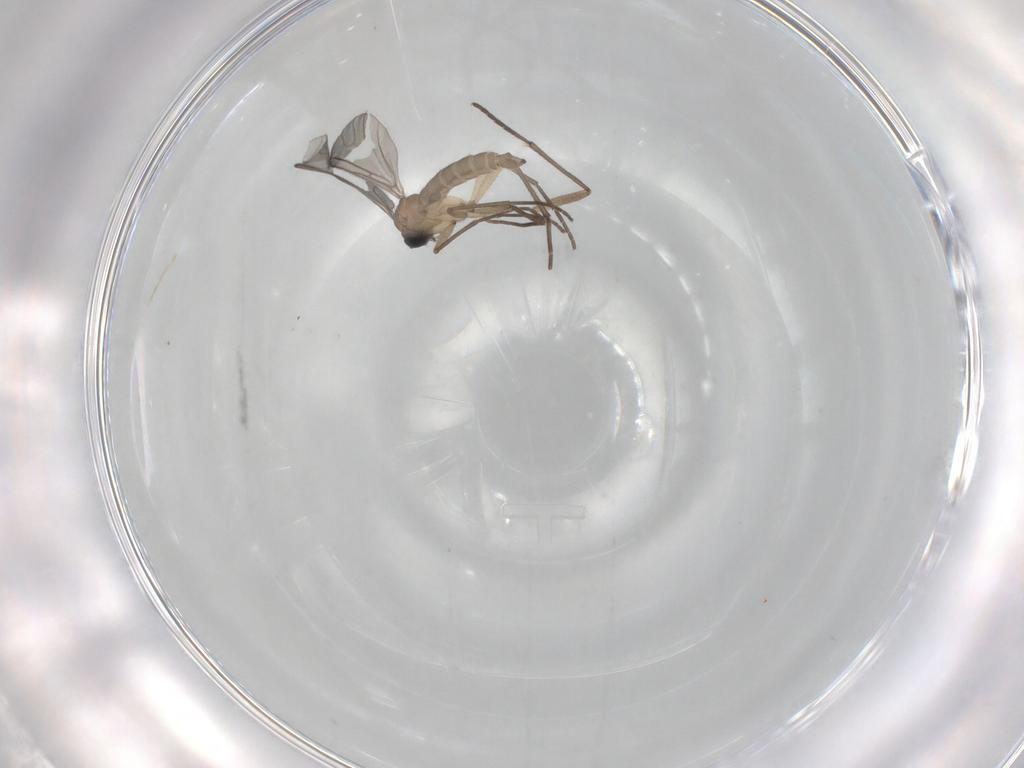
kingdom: Animalia
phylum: Arthropoda
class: Insecta
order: Diptera
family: Sciaridae
